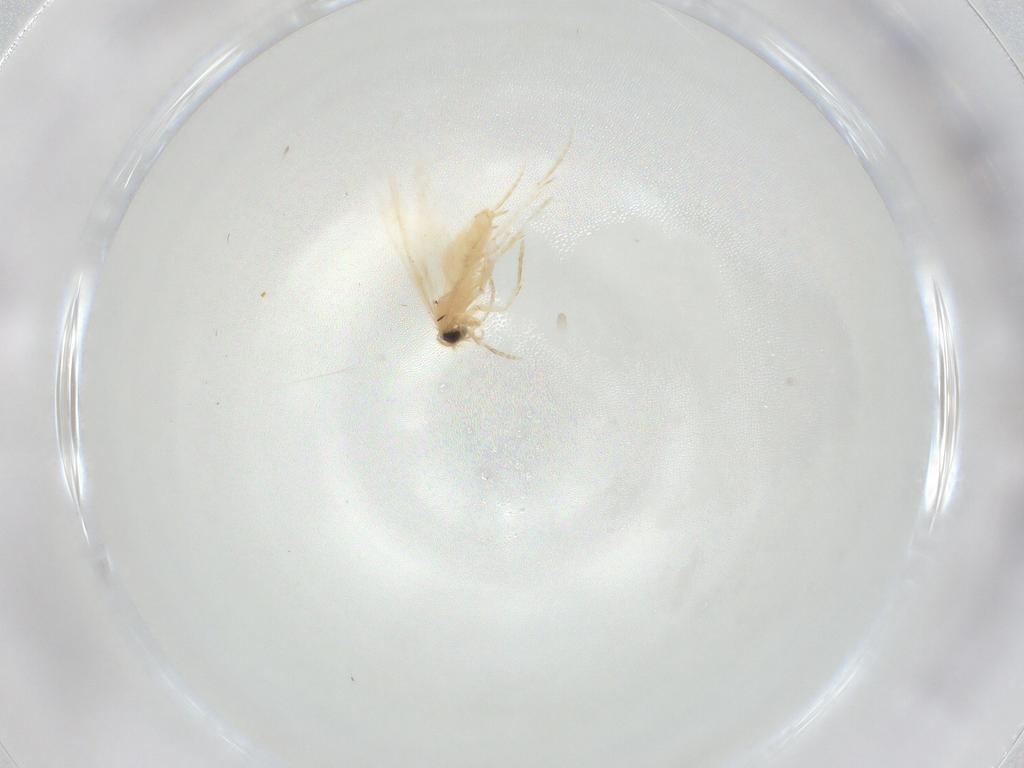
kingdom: Animalia
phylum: Arthropoda
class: Insecta
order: Lepidoptera
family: Nepticulidae
